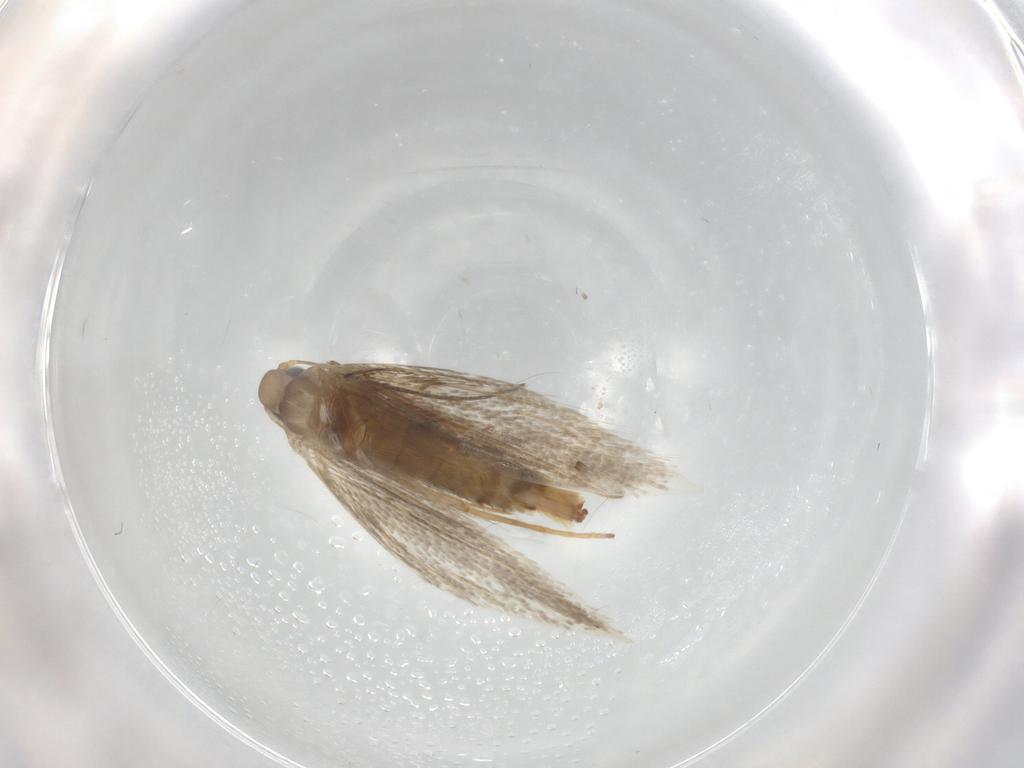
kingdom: Animalia
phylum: Arthropoda
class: Insecta
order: Lepidoptera
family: Tischeriidae
